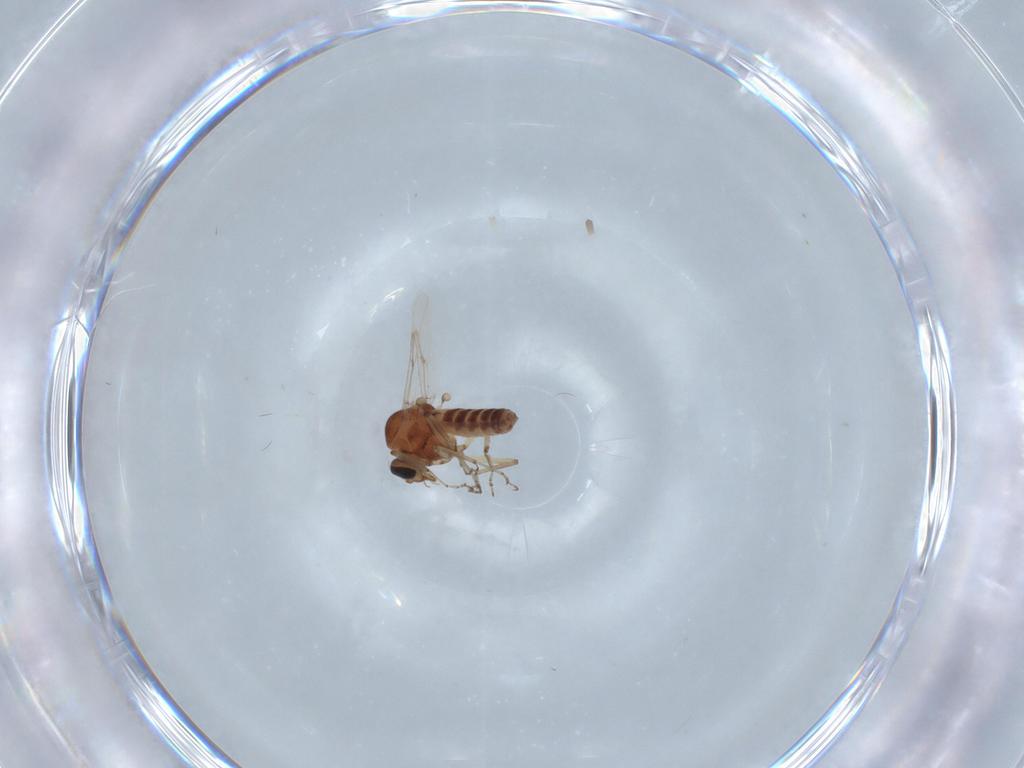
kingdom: Animalia
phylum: Arthropoda
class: Insecta
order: Diptera
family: Ceratopogonidae
